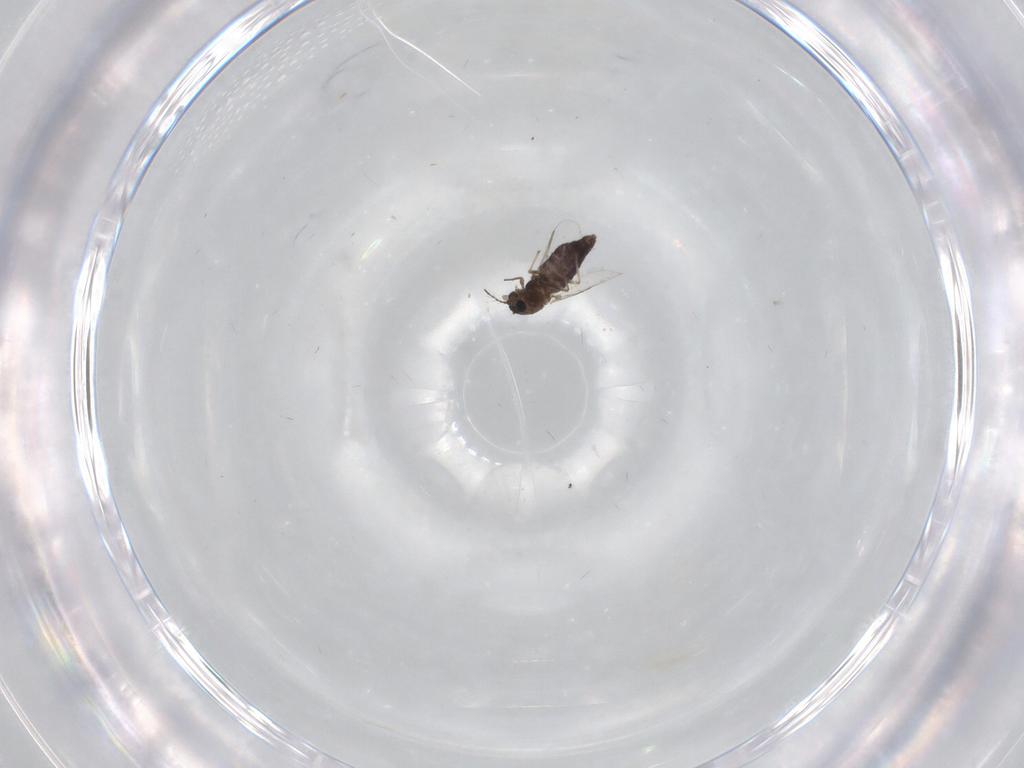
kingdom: Animalia
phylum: Arthropoda
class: Insecta
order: Diptera
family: Chironomidae
